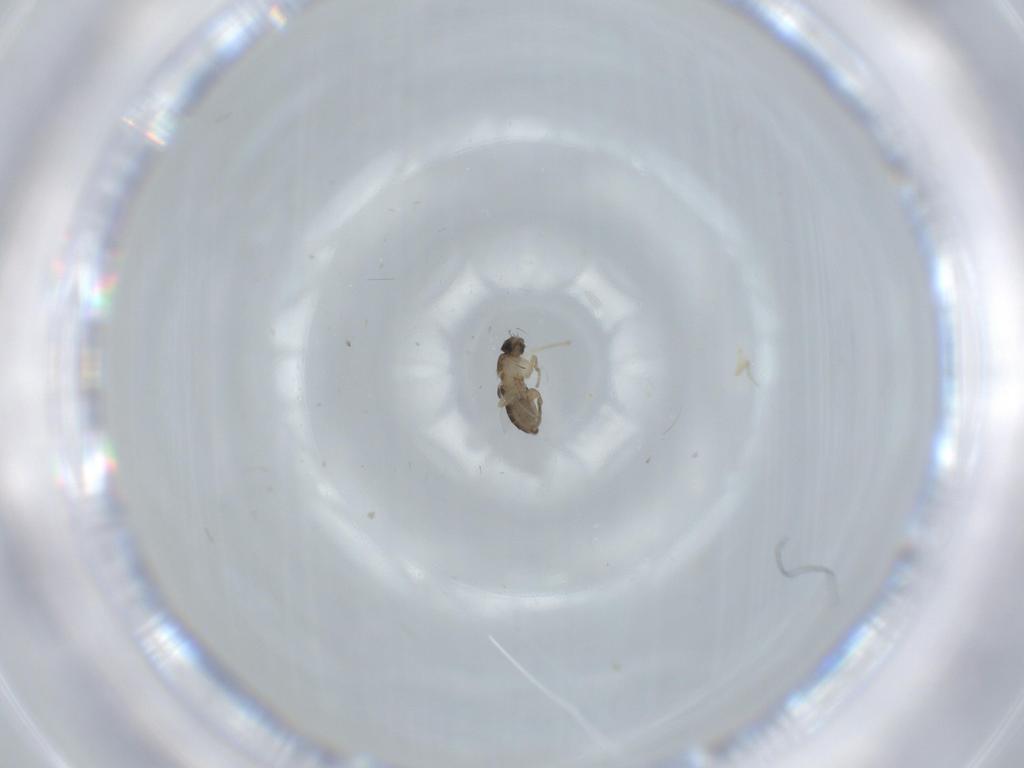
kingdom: Animalia
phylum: Arthropoda
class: Insecta
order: Diptera
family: Phoridae
